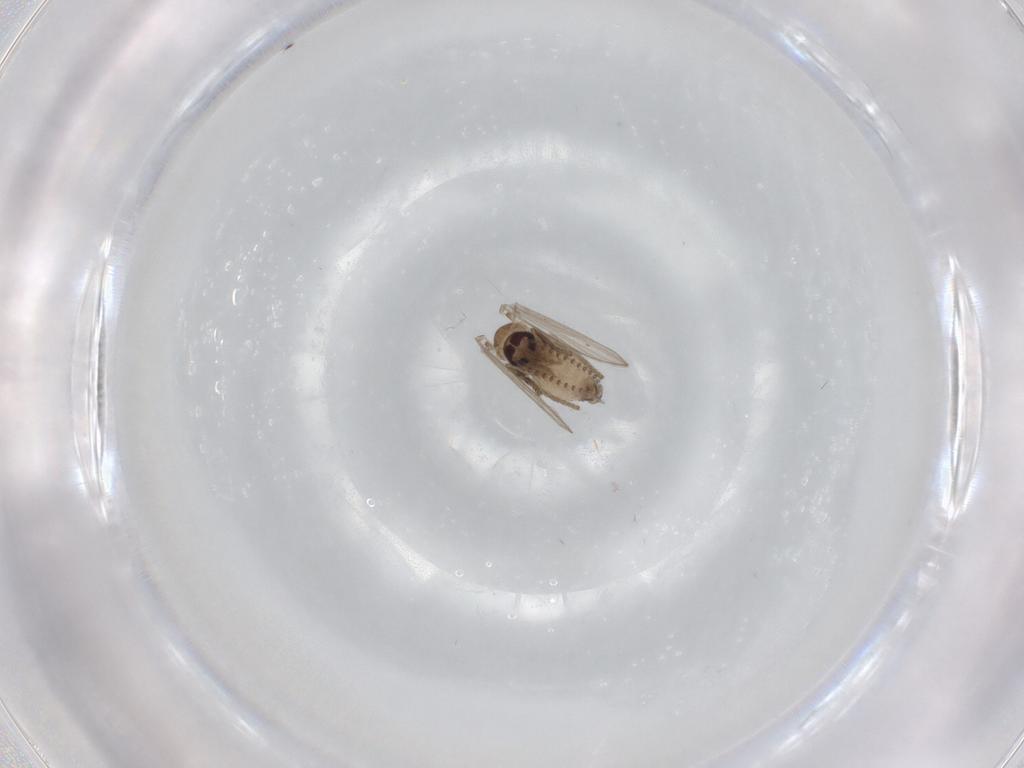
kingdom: Animalia
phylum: Arthropoda
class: Insecta
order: Diptera
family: Psychodidae
